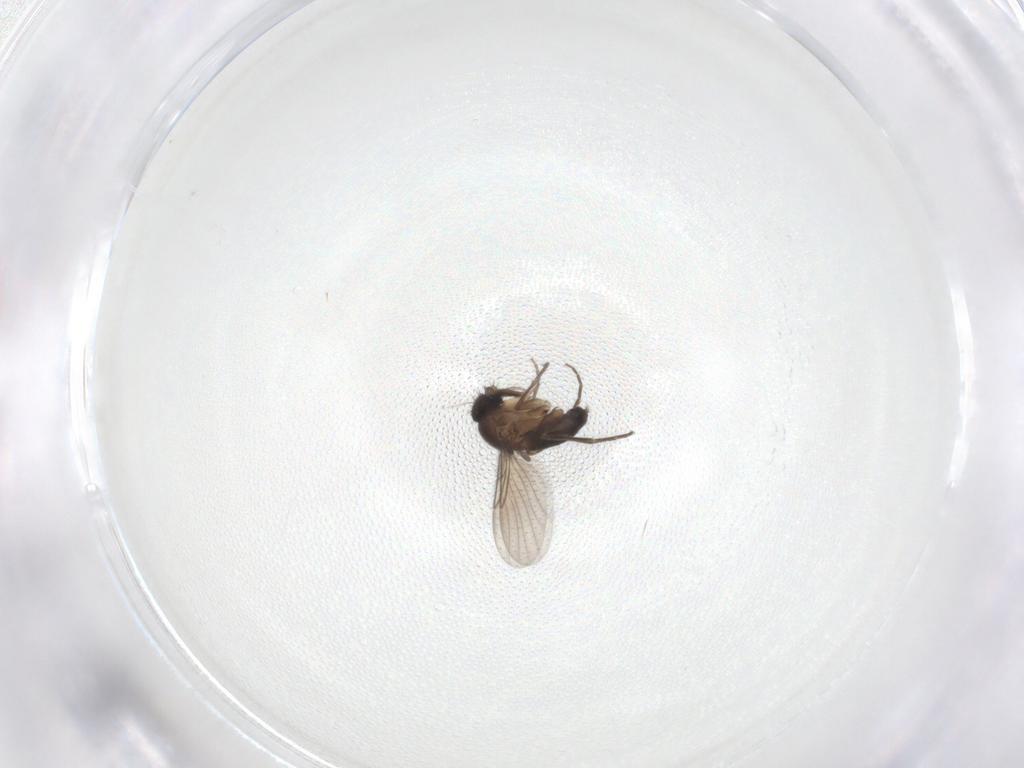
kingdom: Animalia
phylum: Arthropoda
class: Insecta
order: Diptera
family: Phoridae
